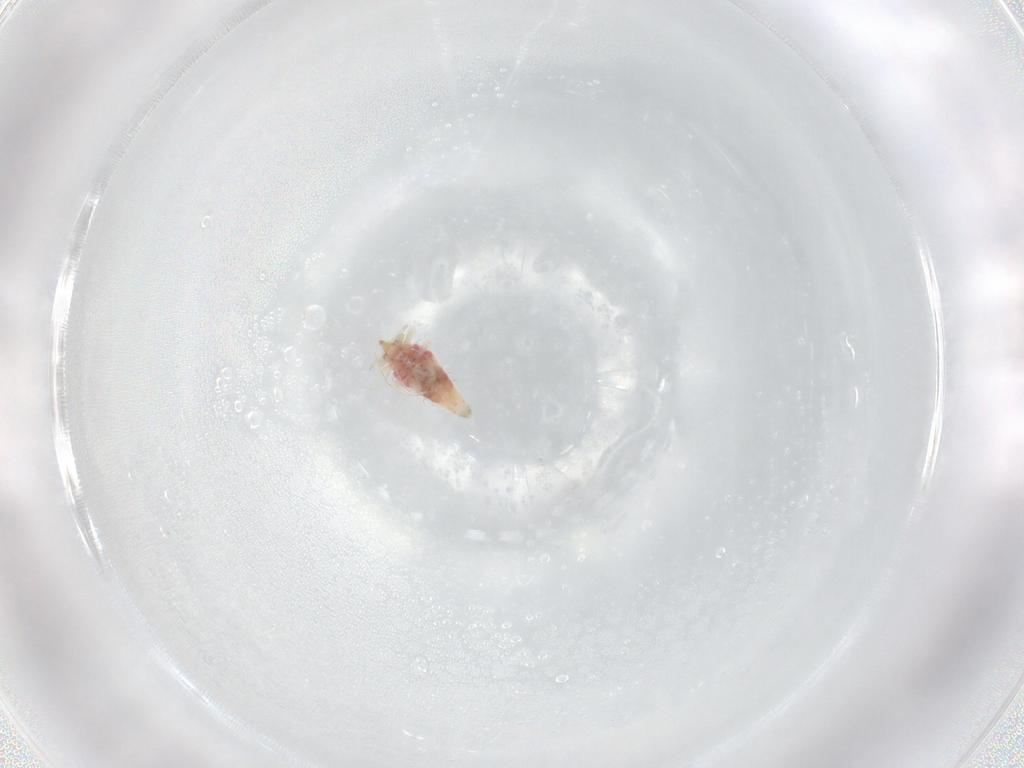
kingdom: Animalia
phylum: Arthropoda
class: Insecta
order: Neuroptera
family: Coniopterygidae
